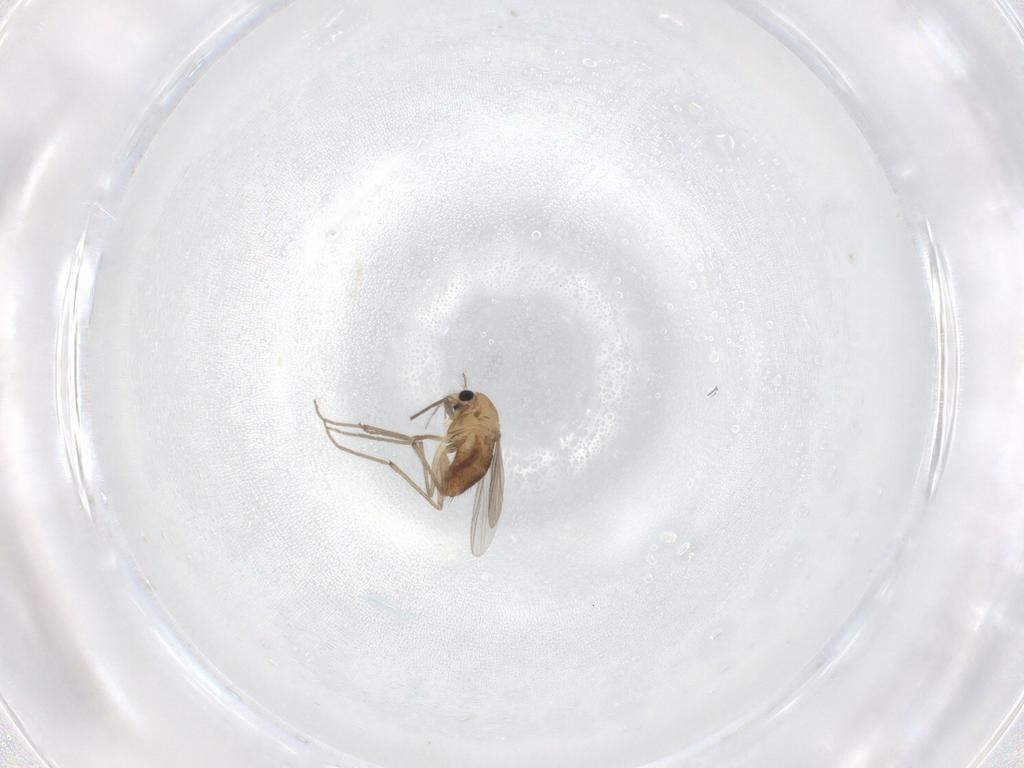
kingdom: Animalia
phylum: Arthropoda
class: Insecta
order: Diptera
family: Chironomidae
